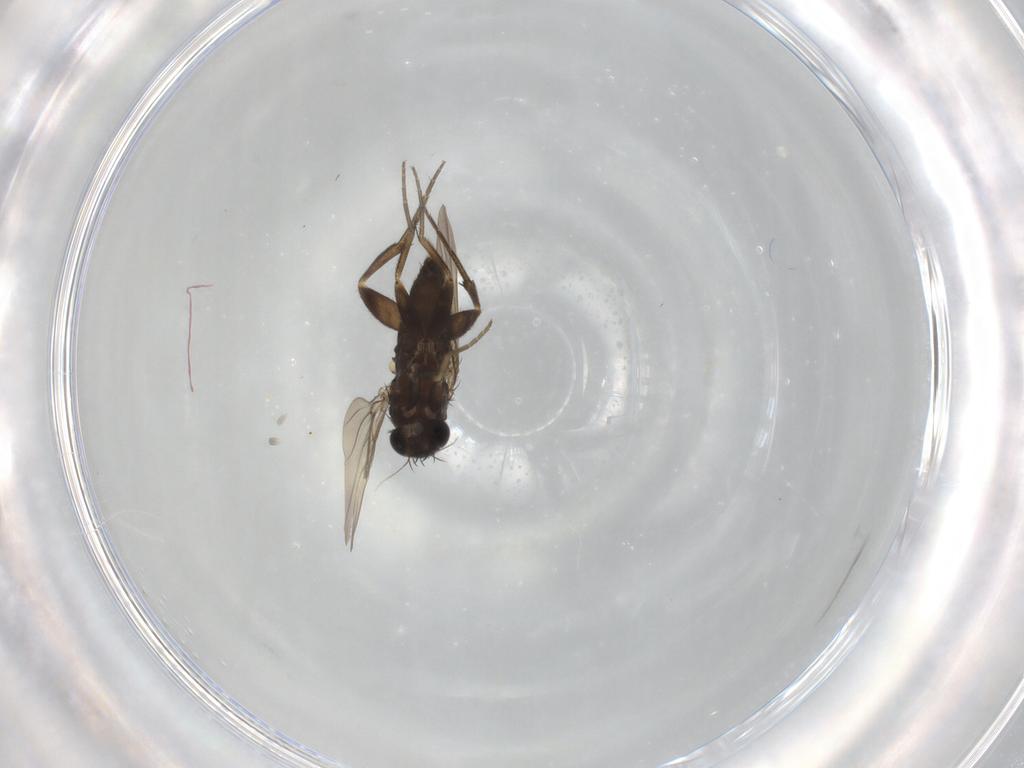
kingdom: Animalia
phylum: Arthropoda
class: Insecta
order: Diptera
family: Phoridae
